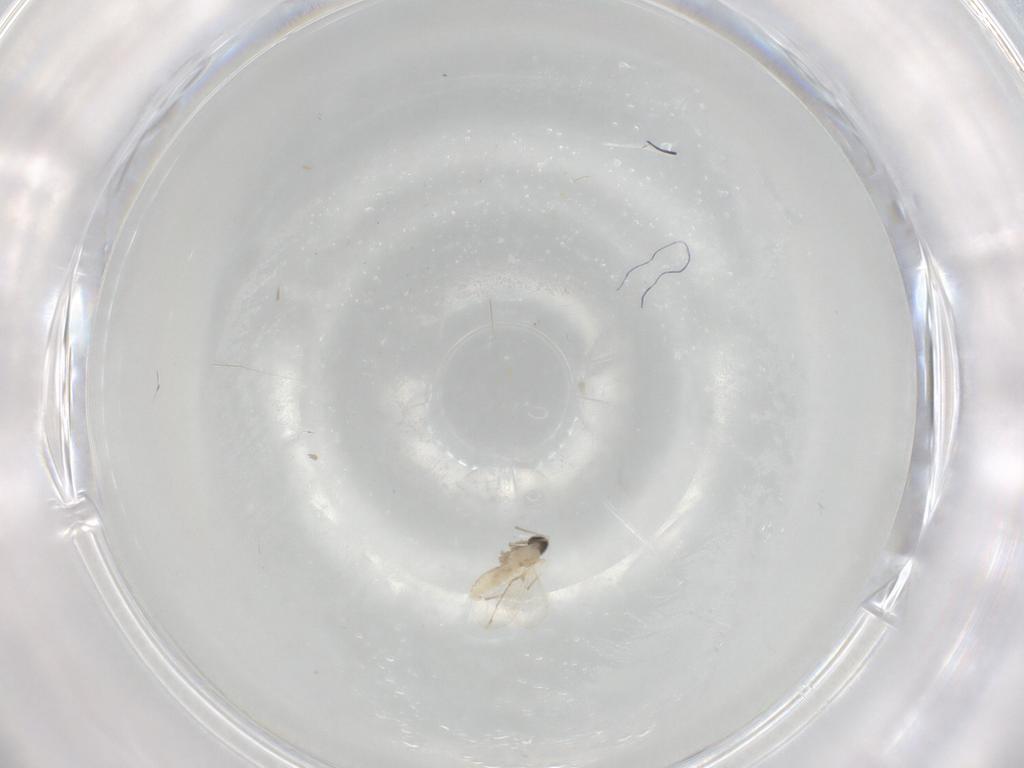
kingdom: Animalia
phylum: Arthropoda
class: Insecta
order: Diptera
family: Cecidomyiidae
